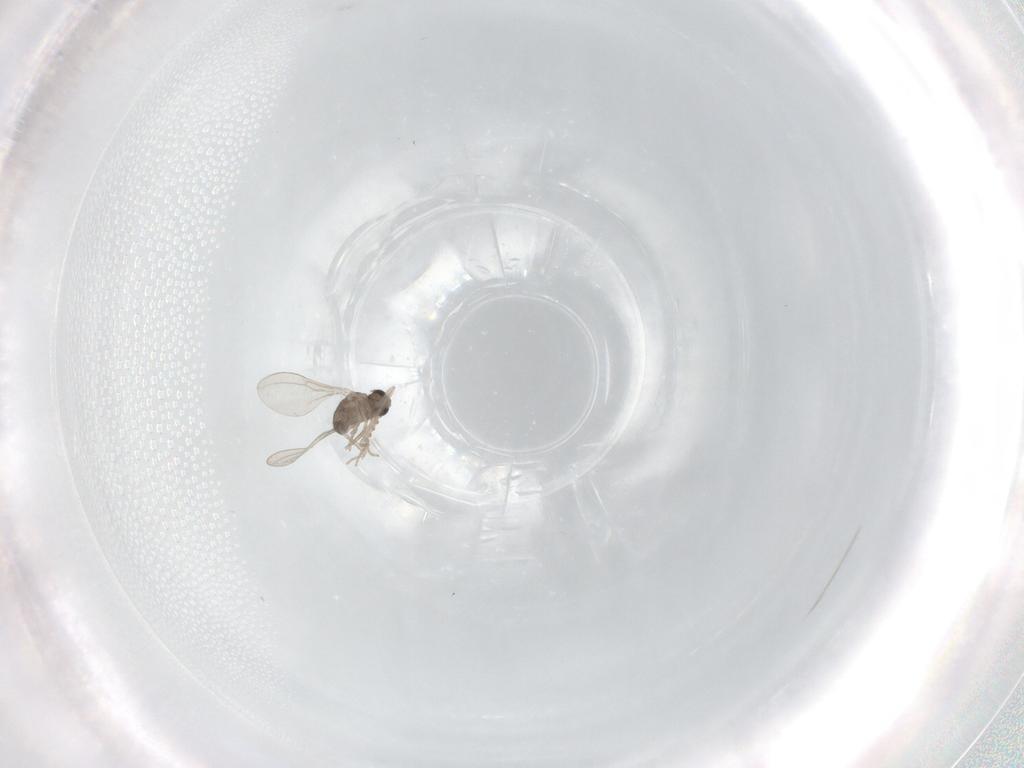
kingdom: Animalia
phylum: Arthropoda
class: Insecta
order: Diptera
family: Cecidomyiidae
